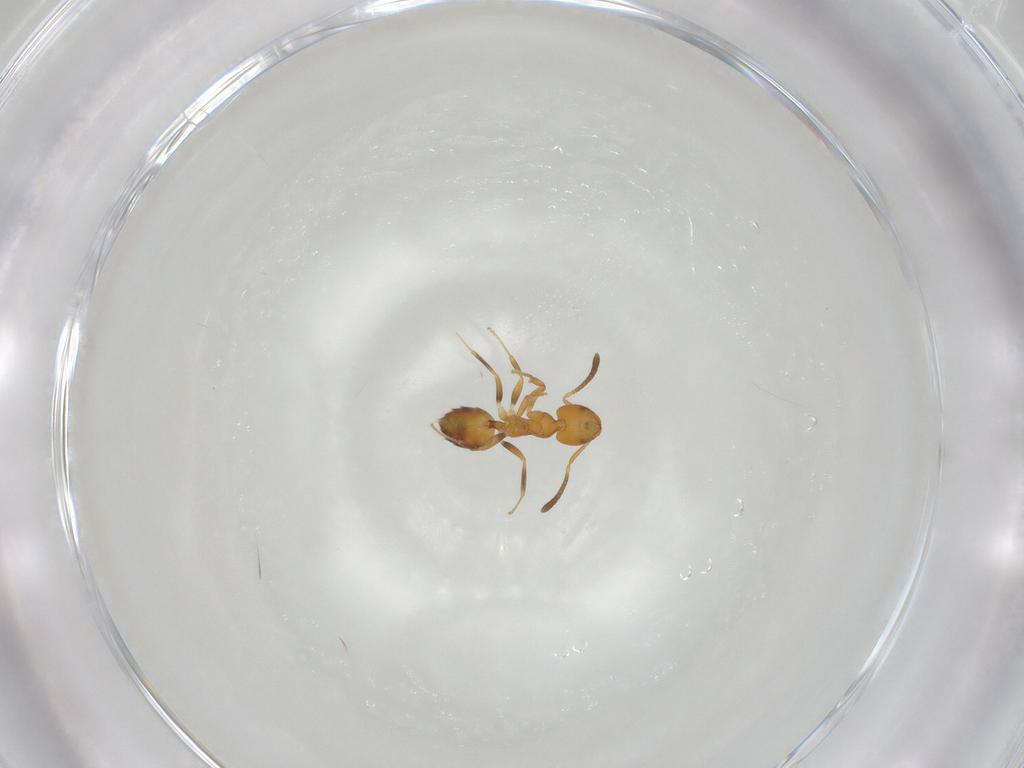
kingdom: Animalia
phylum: Arthropoda
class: Insecta
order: Hymenoptera
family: Formicidae
